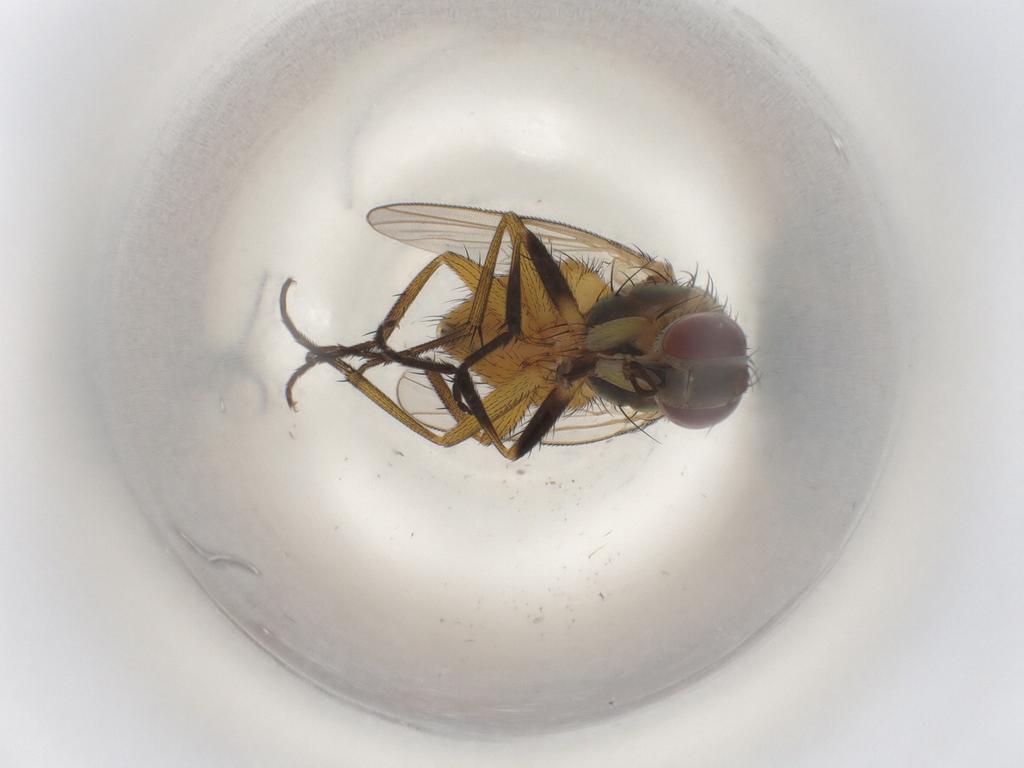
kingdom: Animalia
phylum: Arthropoda
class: Insecta
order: Diptera
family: Muscidae
